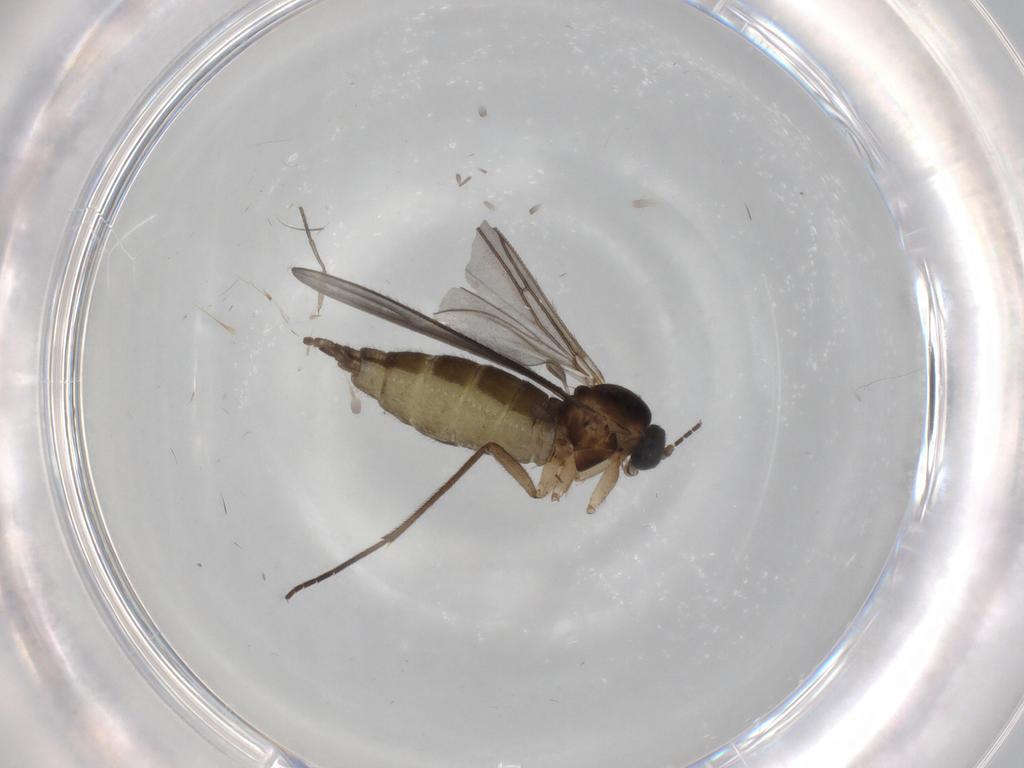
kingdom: Animalia
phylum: Arthropoda
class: Insecta
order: Diptera
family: Sciaridae
